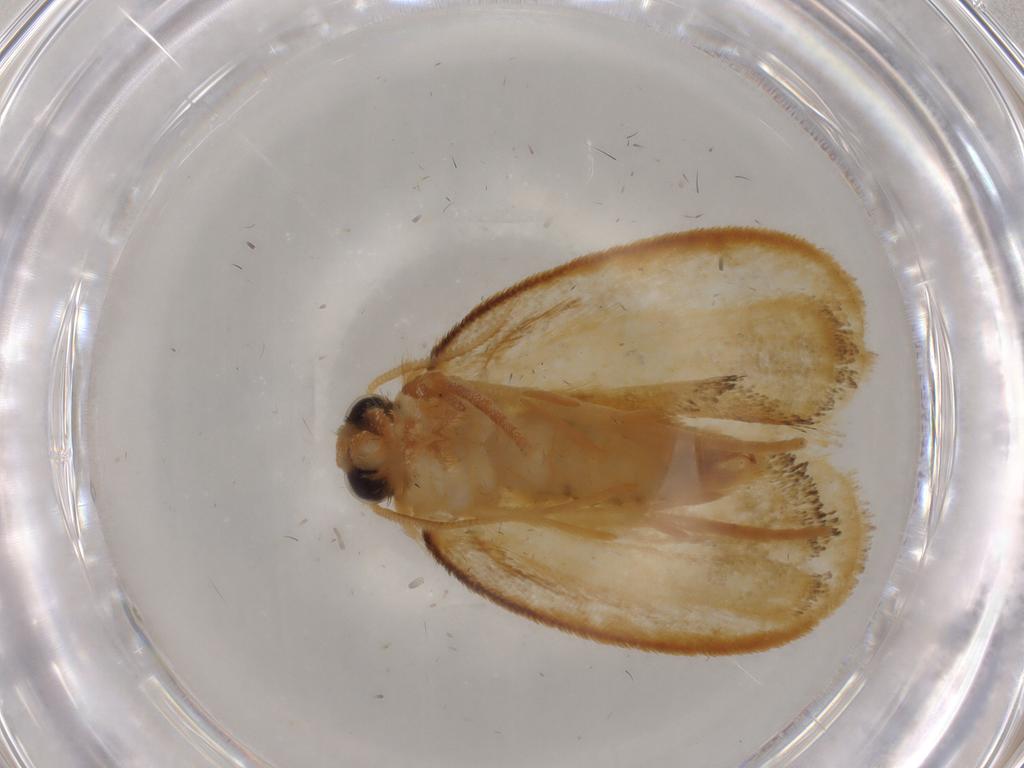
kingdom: Animalia
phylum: Arthropoda
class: Insecta
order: Lepidoptera
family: Psychidae
